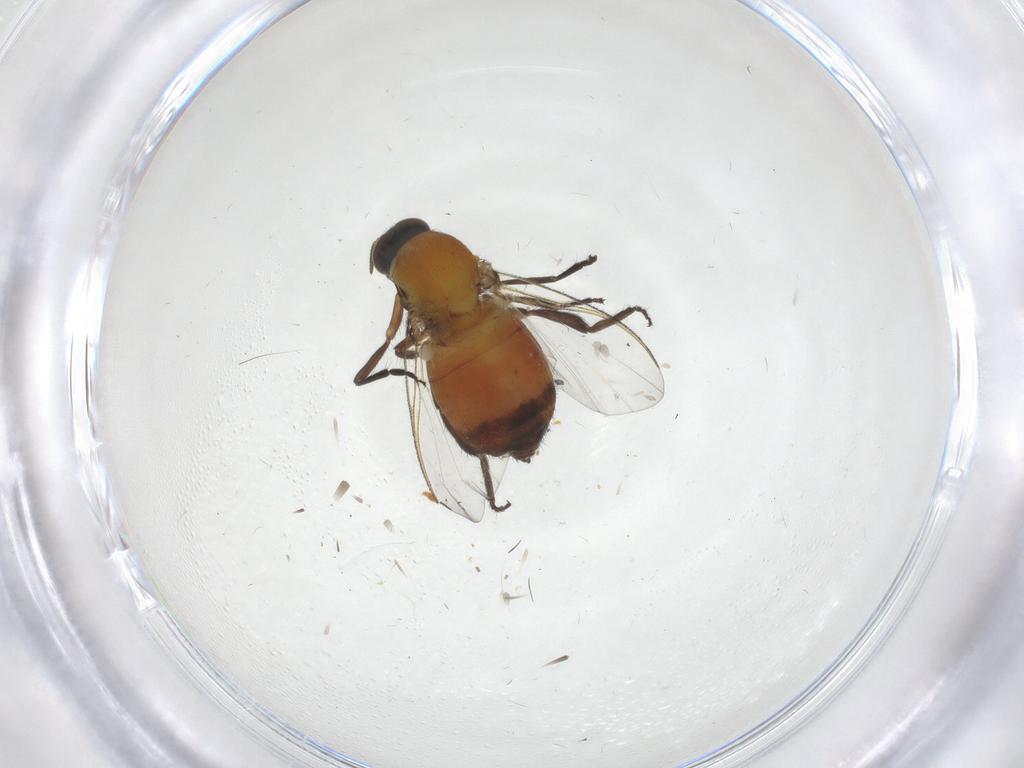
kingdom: Animalia
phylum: Arthropoda
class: Insecta
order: Diptera
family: Phoridae
